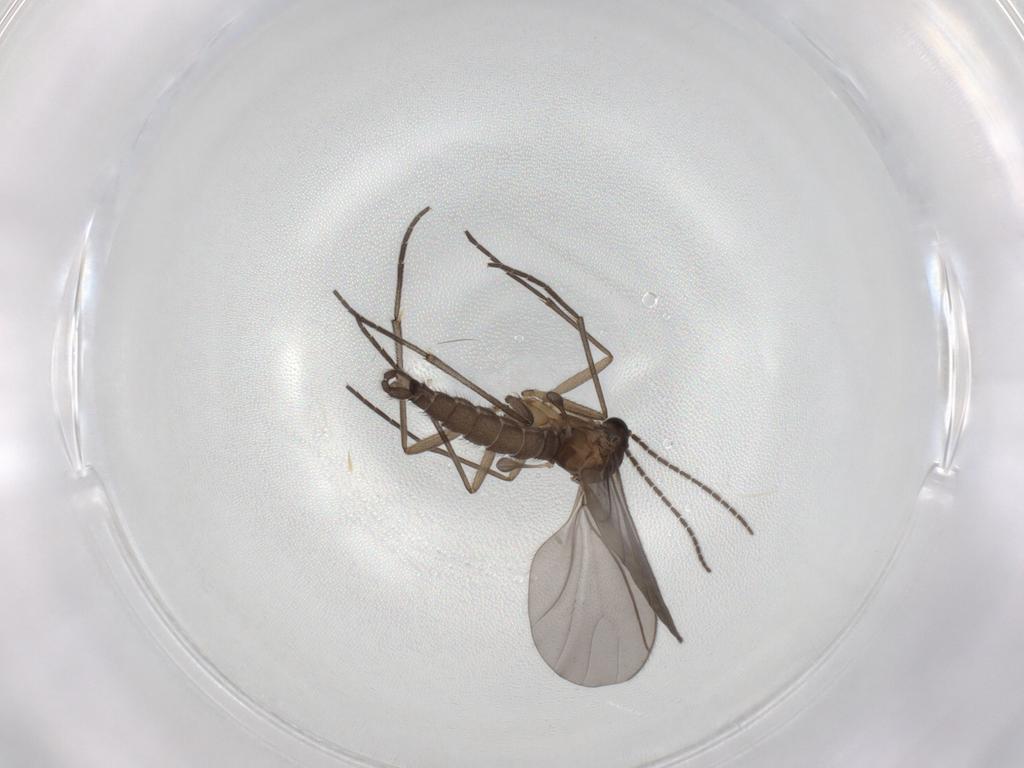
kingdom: Animalia
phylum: Arthropoda
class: Insecta
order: Diptera
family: Sciaridae
